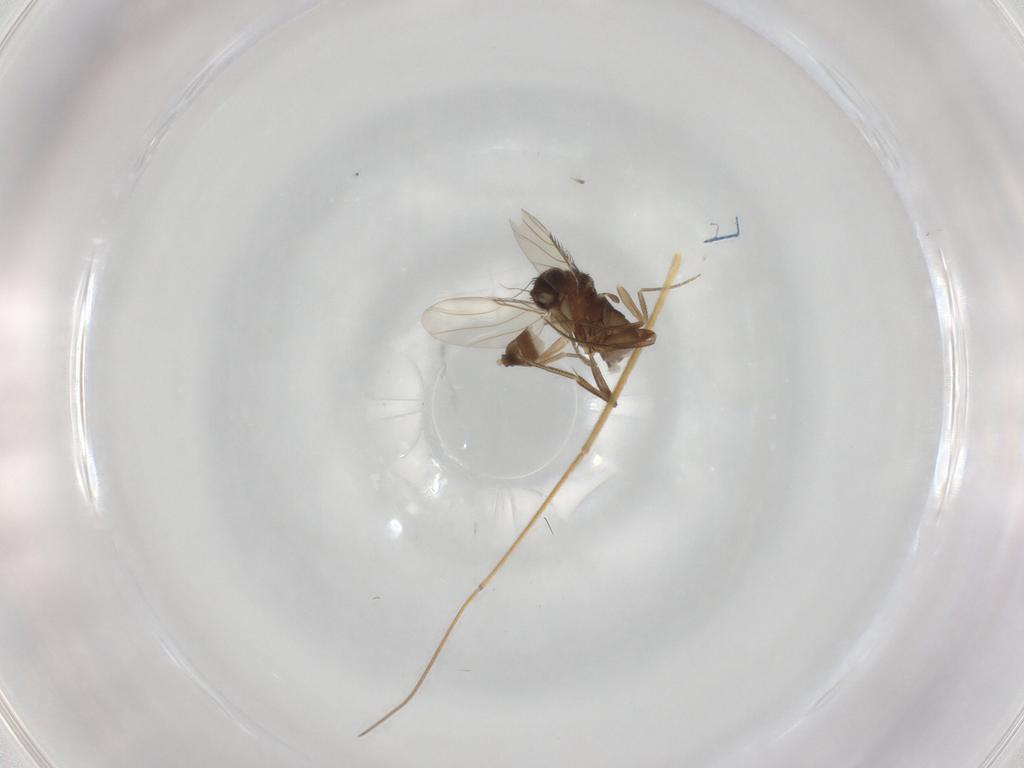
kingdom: Animalia
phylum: Arthropoda
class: Insecta
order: Diptera
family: Phoridae
